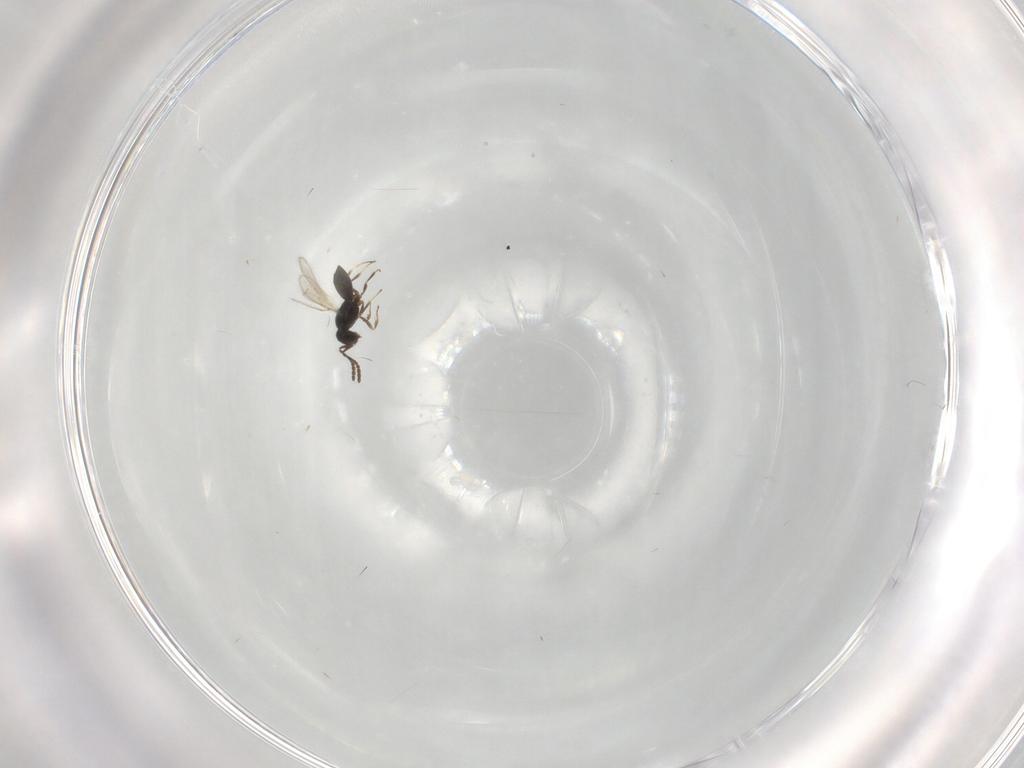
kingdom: Animalia
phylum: Arthropoda
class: Insecta
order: Hymenoptera
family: Scelionidae
